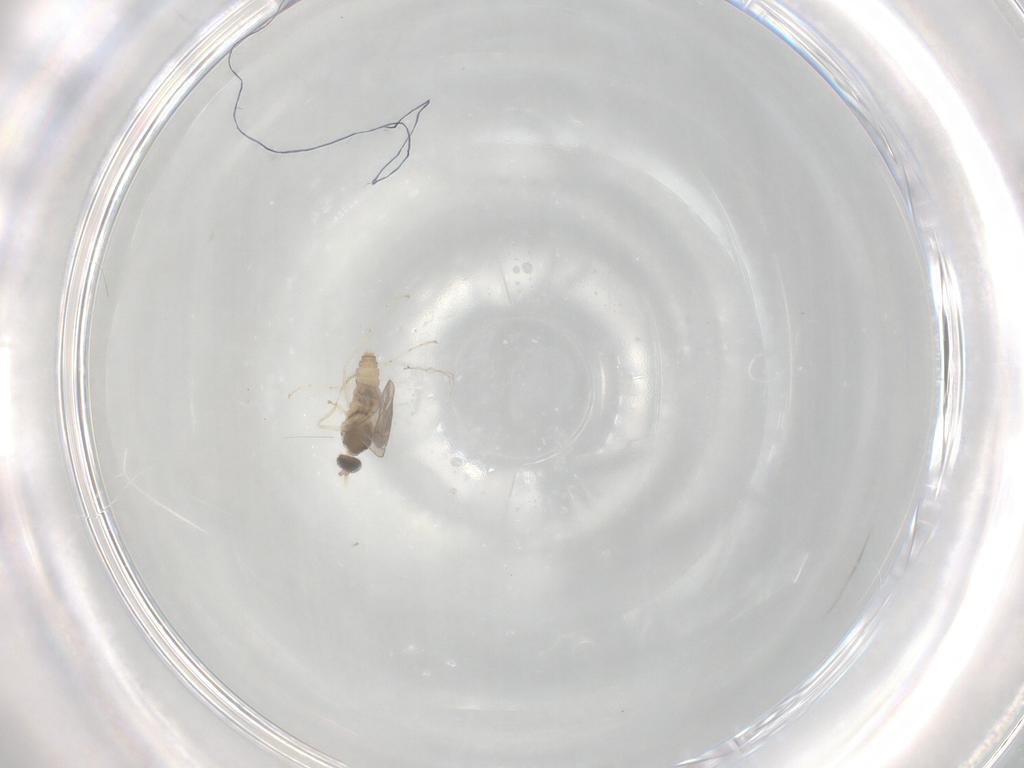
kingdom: Animalia
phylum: Arthropoda
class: Insecta
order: Diptera
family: Cecidomyiidae
